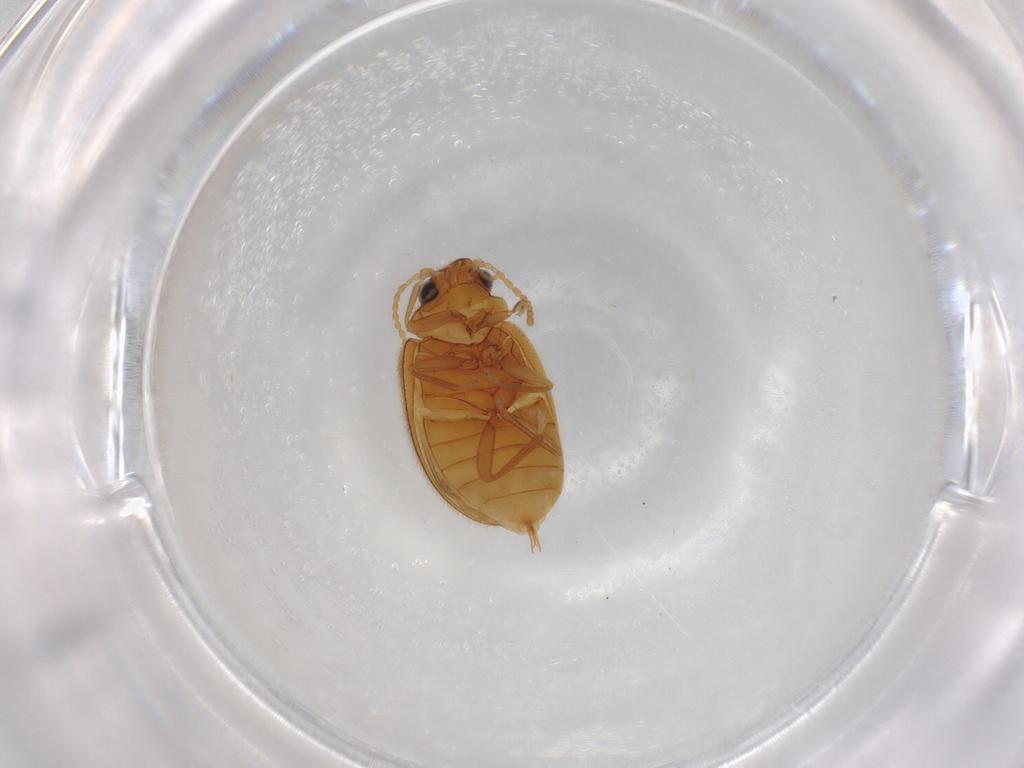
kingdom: Animalia
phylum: Arthropoda
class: Insecta
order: Coleoptera
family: Scirtidae
